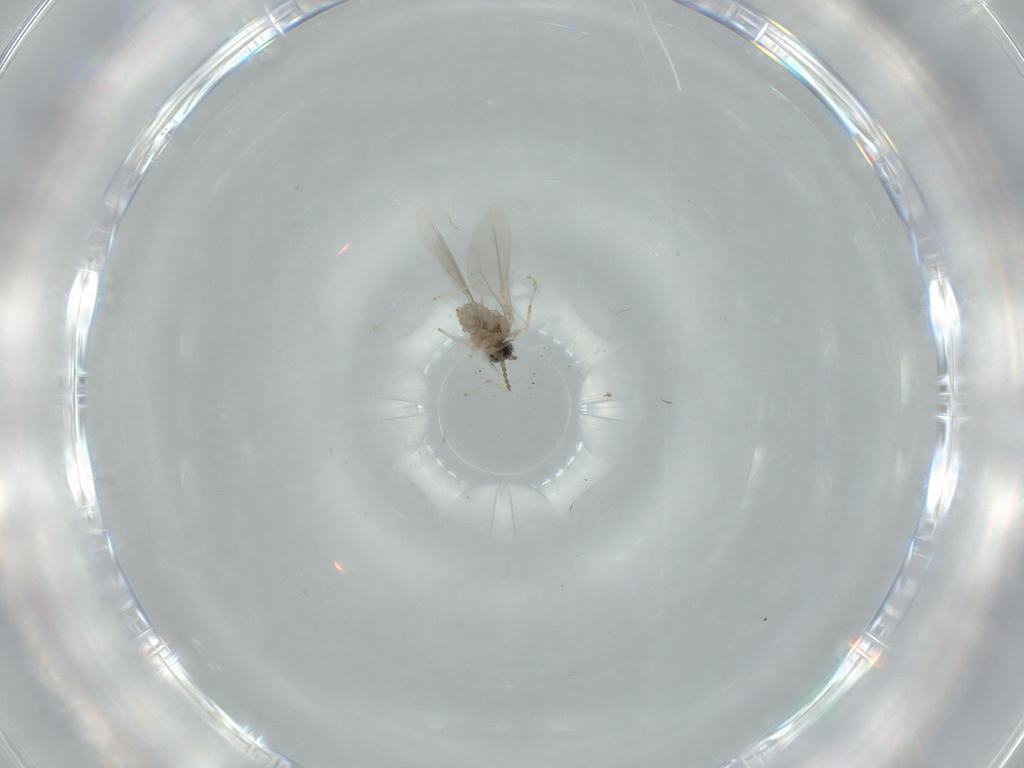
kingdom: Animalia
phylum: Arthropoda
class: Insecta
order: Diptera
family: Cecidomyiidae
